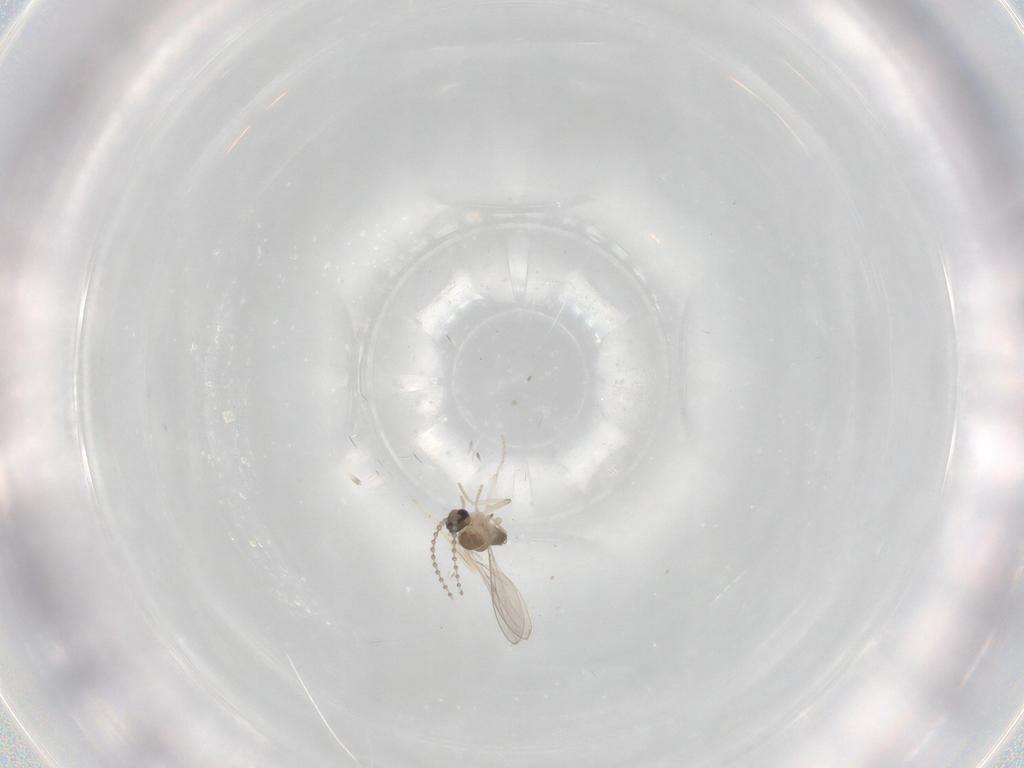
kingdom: Animalia
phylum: Arthropoda
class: Insecta
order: Diptera
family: Cecidomyiidae
